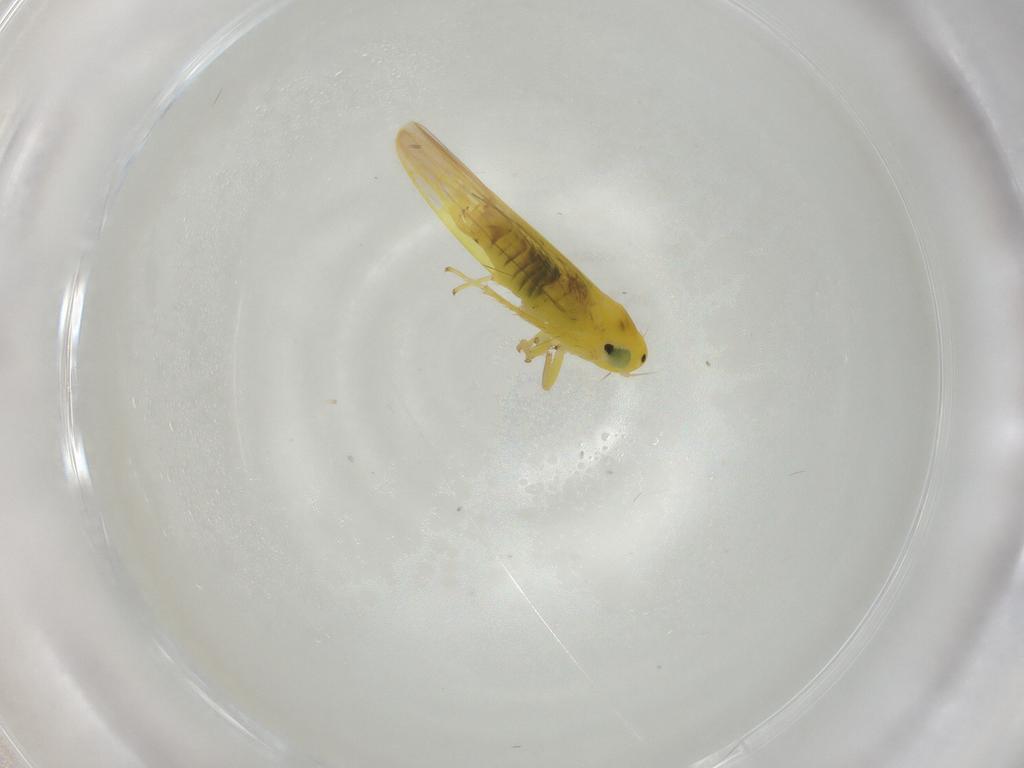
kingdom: Animalia
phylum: Arthropoda
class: Insecta
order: Hemiptera
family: Cicadellidae
